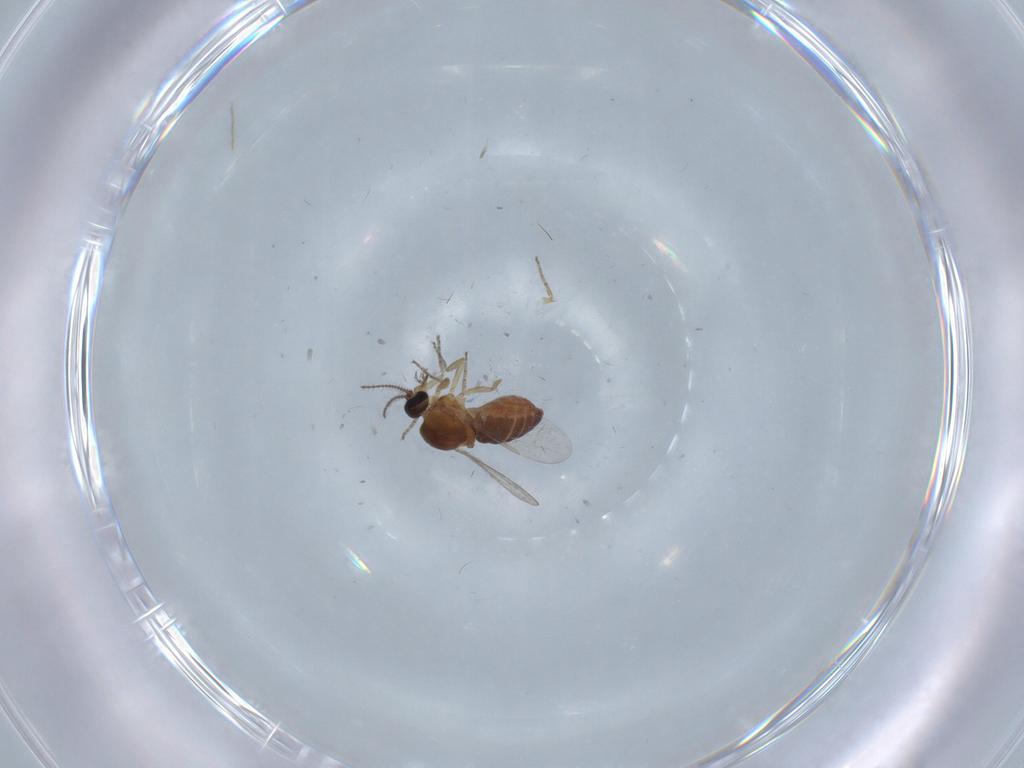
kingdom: Animalia
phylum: Arthropoda
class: Insecta
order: Diptera
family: Ceratopogonidae
